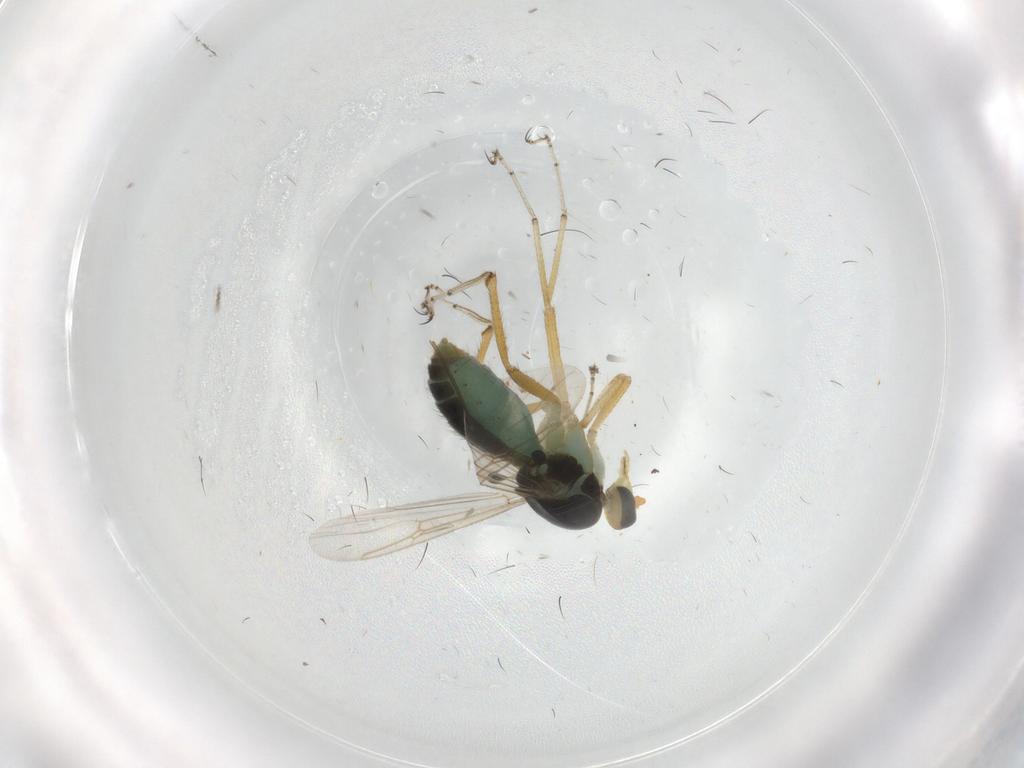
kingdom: Animalia
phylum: Arthropoda
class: Insecta
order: Diptera
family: Ceratopogonidae
